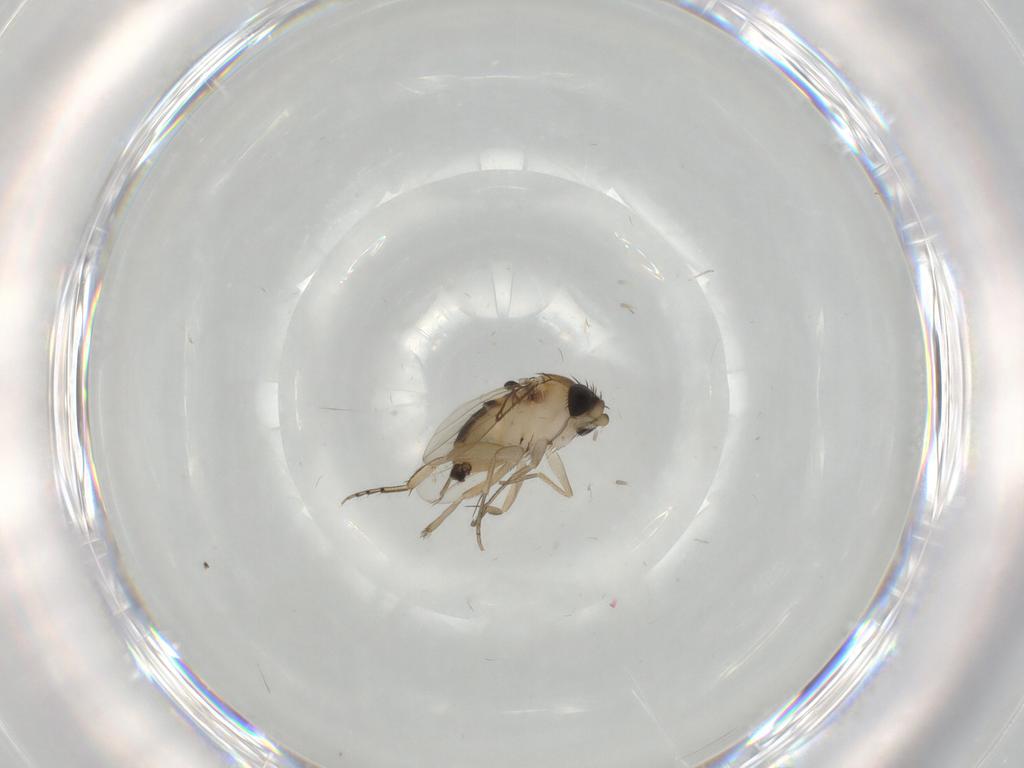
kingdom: Animalia
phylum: Arthropoda
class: Insecta
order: Diptera
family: Phoridae
